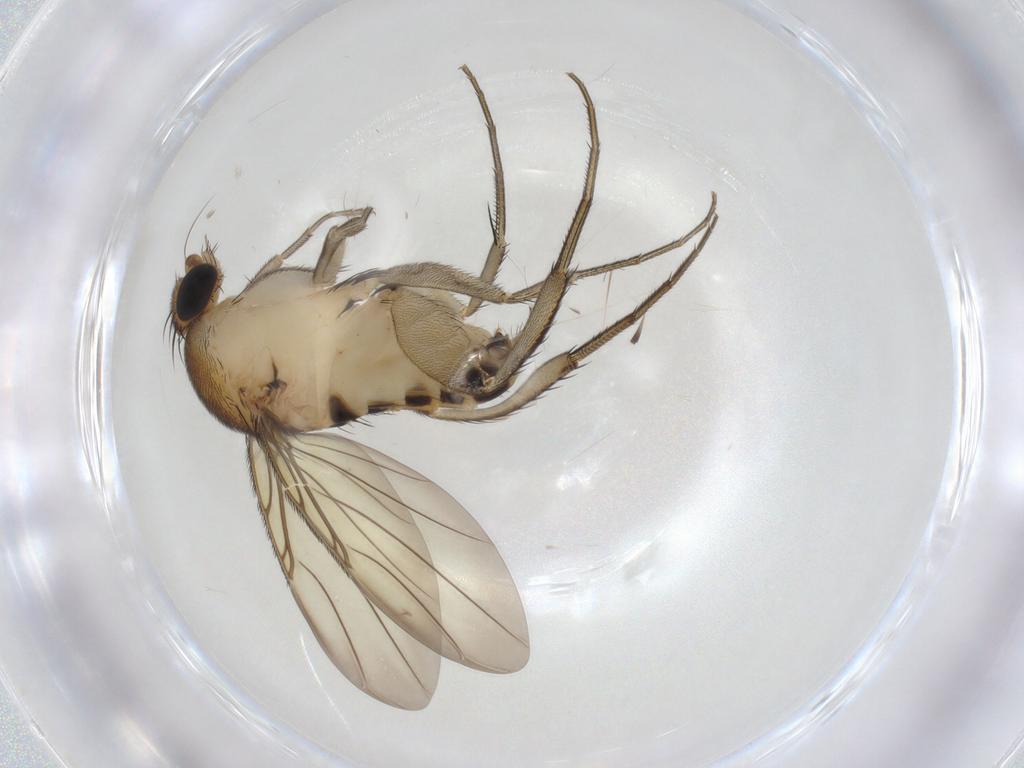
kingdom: Animalia
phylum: Arthropoda
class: Insecta
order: Diptera
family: Phoridae
